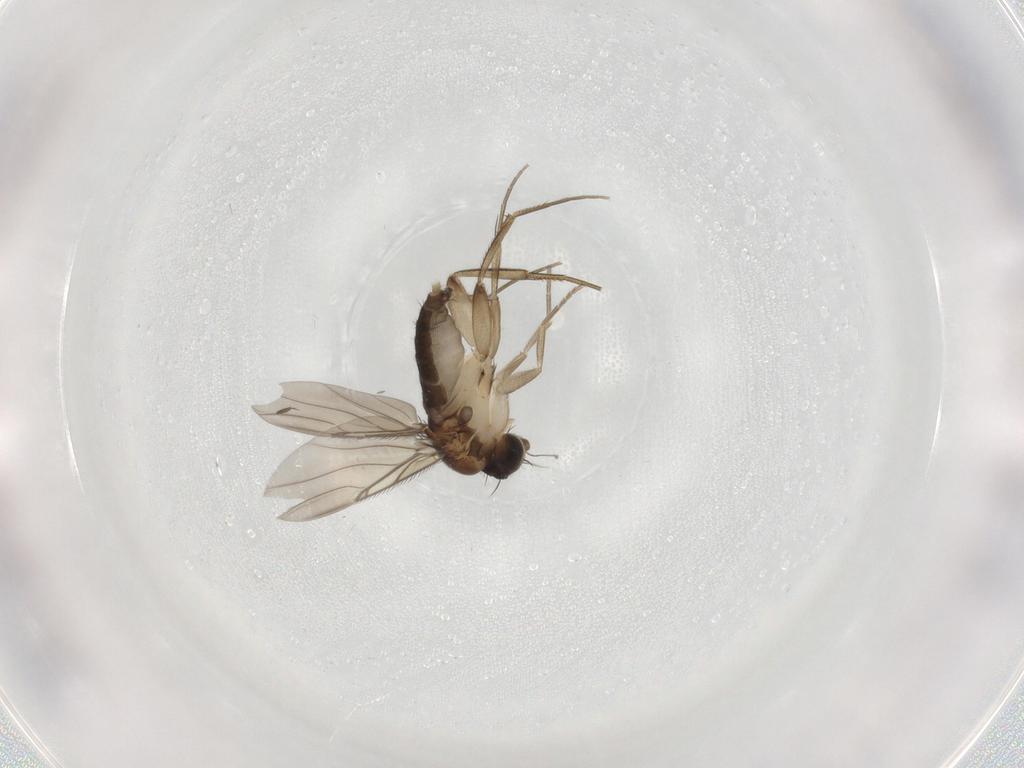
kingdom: Animalia
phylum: Arthropoda
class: Insecta
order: Diptera
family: Phoridae
